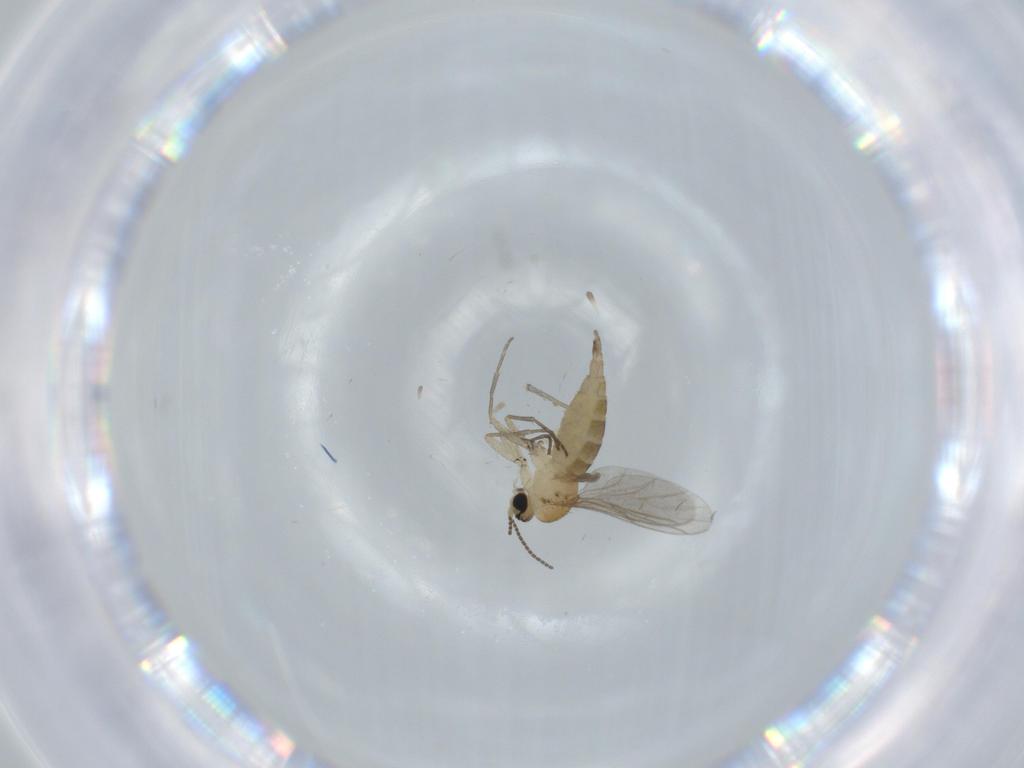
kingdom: Animalia
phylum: Arthropoda
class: Insecta
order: Diptera
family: Sciaridae
